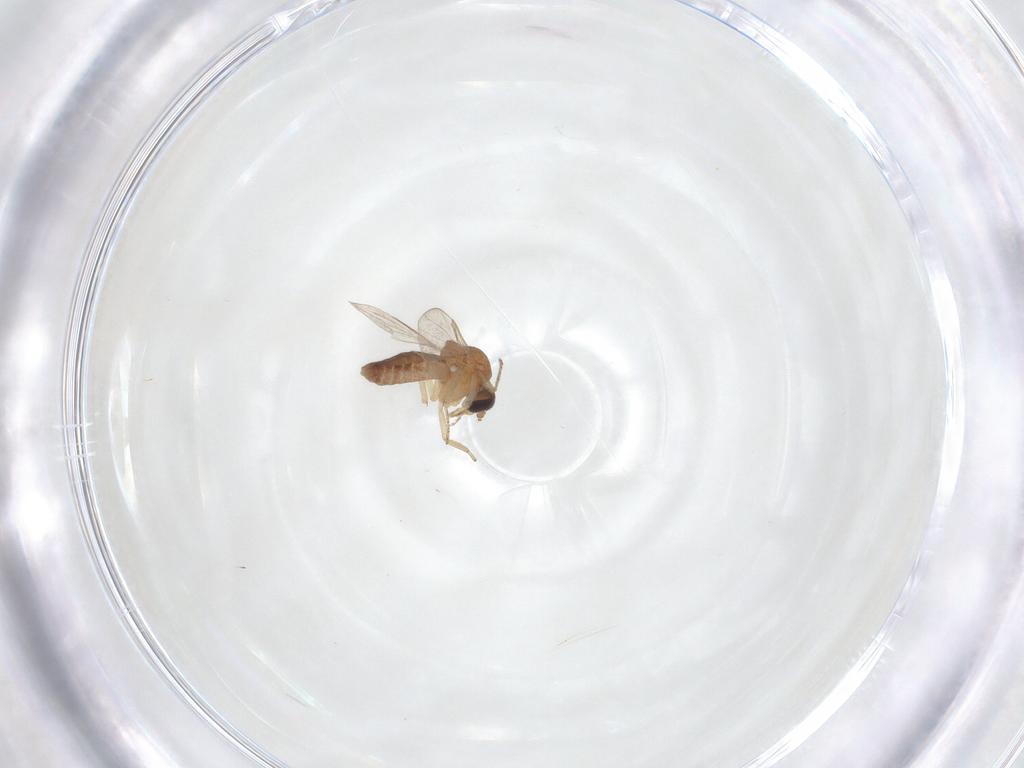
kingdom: Animalia
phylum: Arthropoda
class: Insecta
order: Diptera
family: Ceratopogonidae
